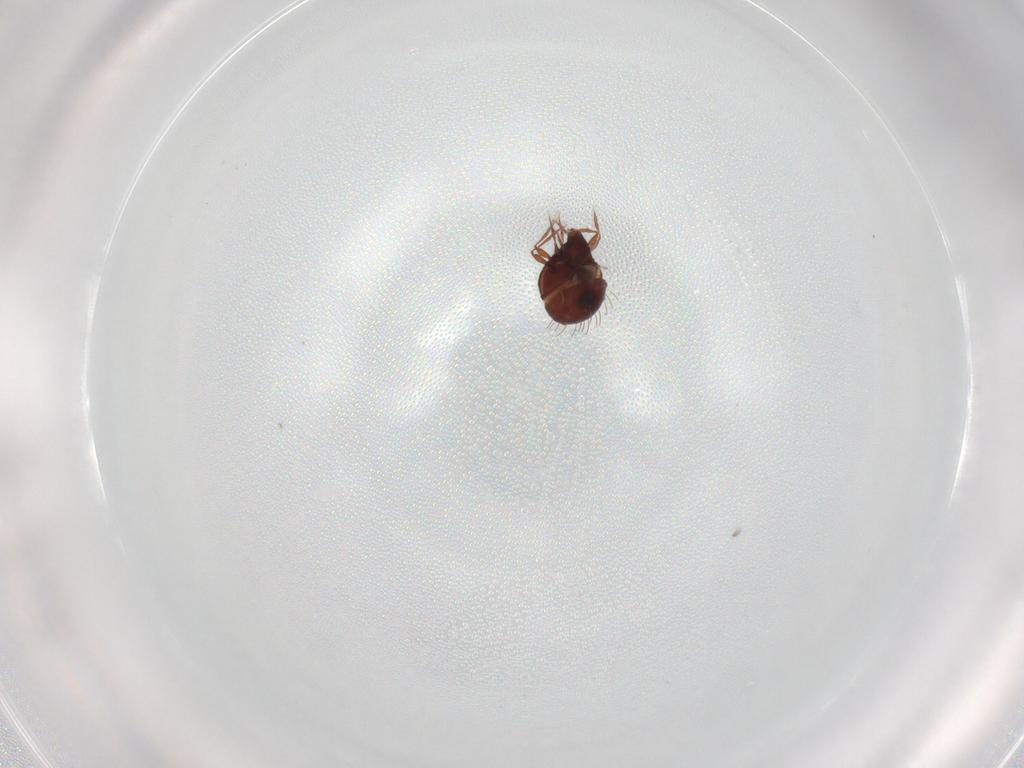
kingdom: Animalia
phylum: Arthropoda
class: Arachnida
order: Sarcoptiformes
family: Caloppiidae
